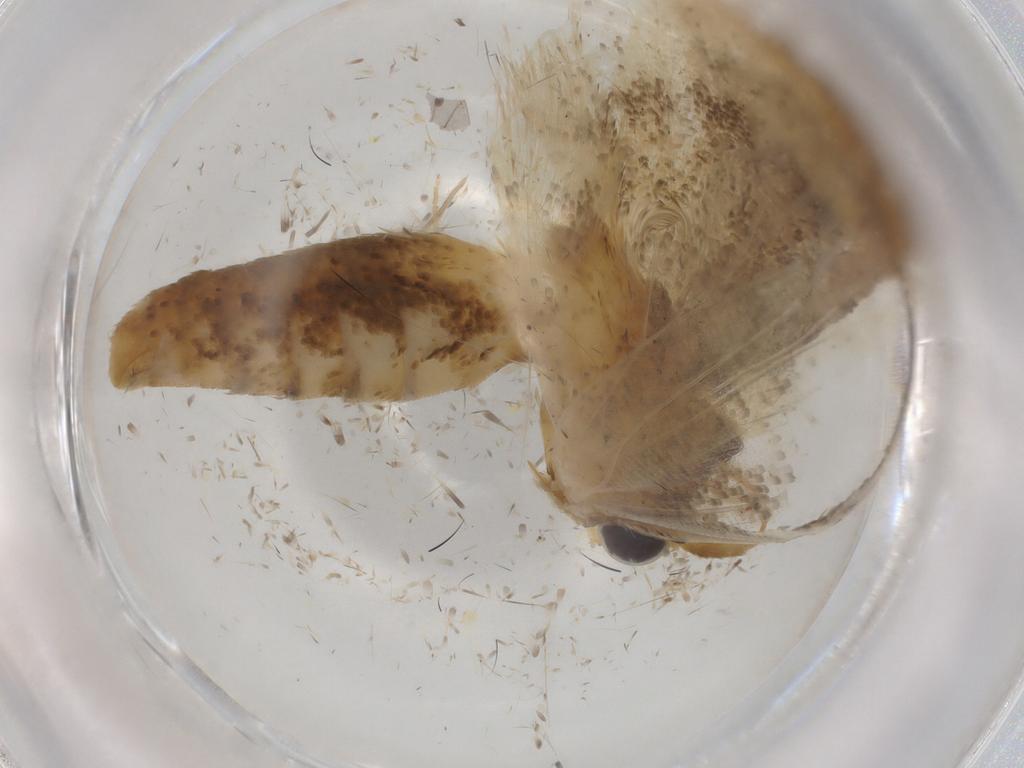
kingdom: Animalia
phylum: Arthropoda
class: Insecta
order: Lepidoptera
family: Pyralidae
